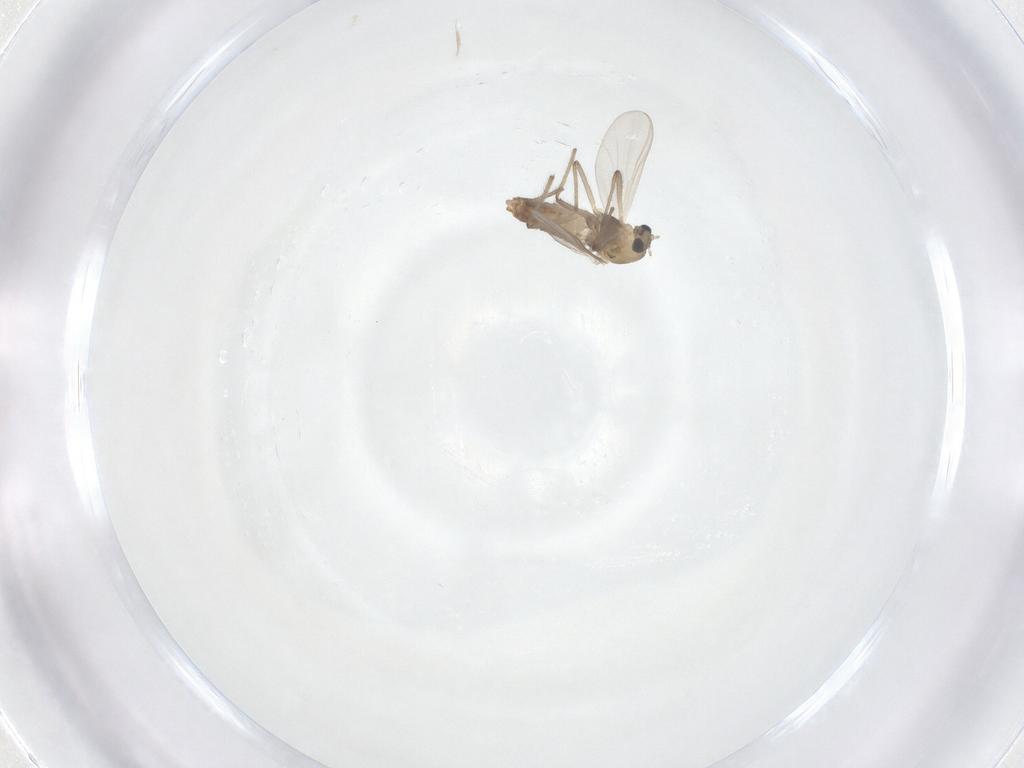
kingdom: Animalia
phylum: Arthropoda
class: Insecta
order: Diptera
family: Chironomidae
